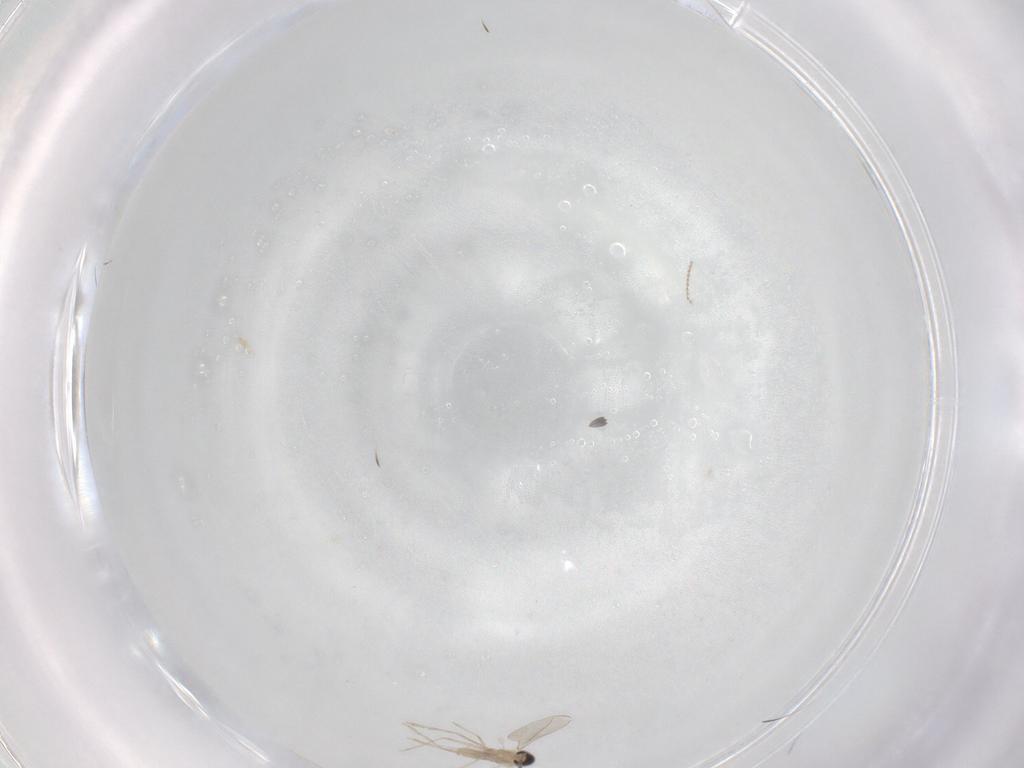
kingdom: Animalia
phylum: Arthropoda
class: Insecta
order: Diptera
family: Sciaridae
